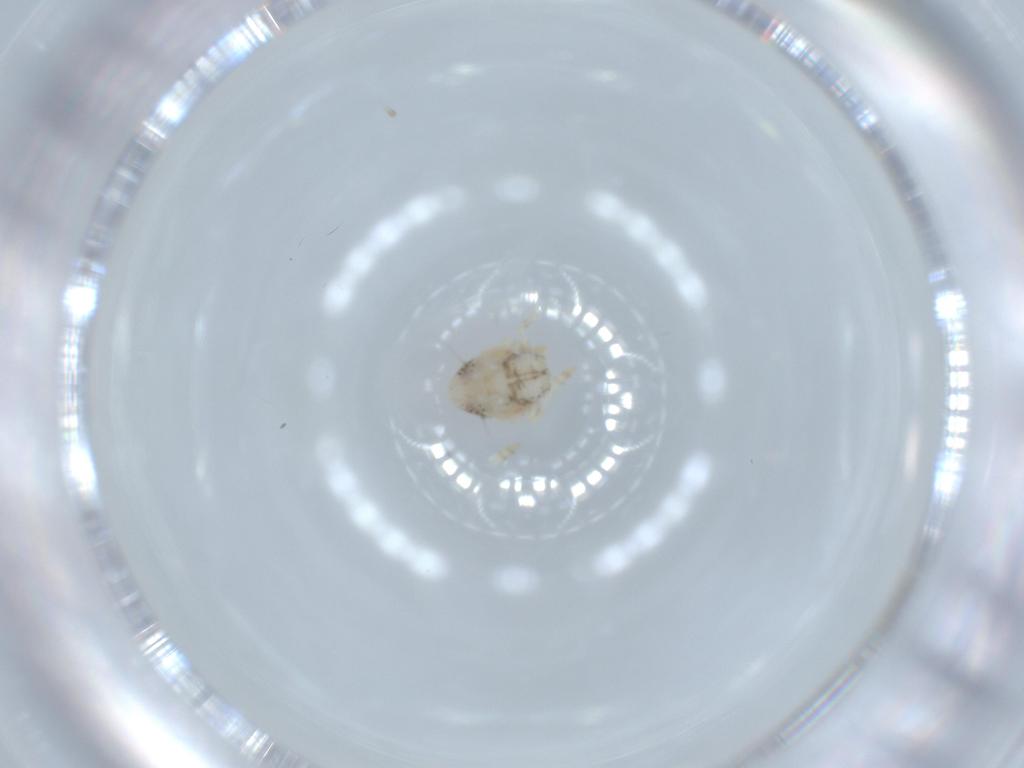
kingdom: Animalia
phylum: Arthropoda
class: Insecta
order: Hemiptera
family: Acanaloniidae
